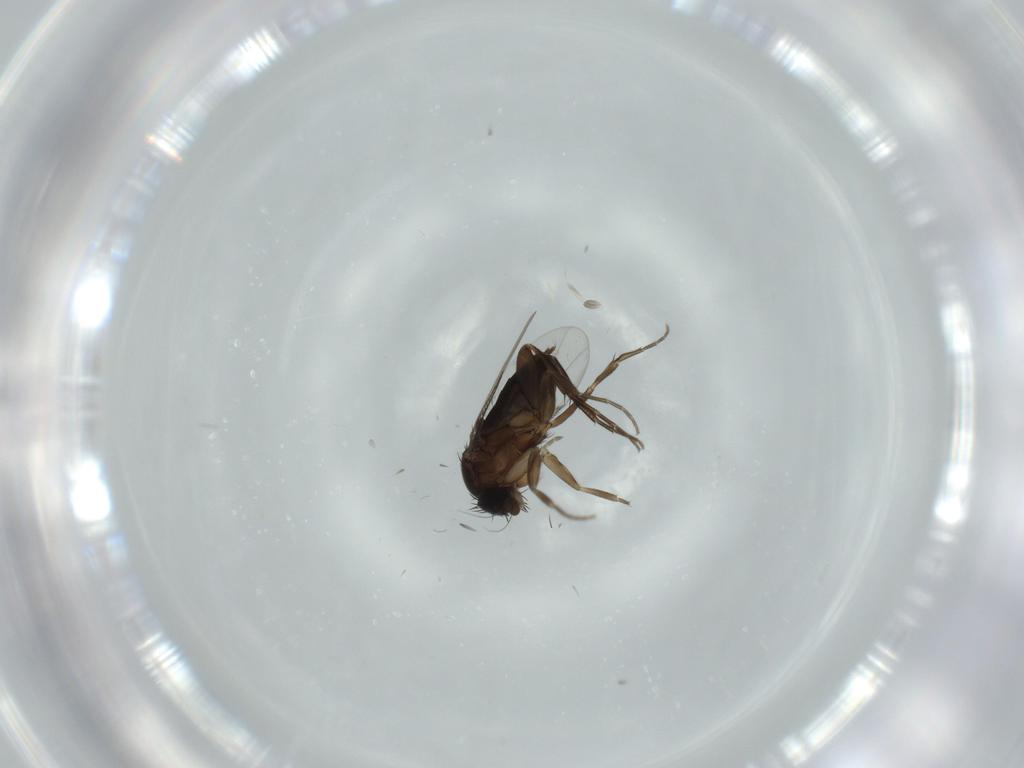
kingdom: Animalia
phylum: Arthropoda
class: Insecta
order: Diptera
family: Phoridae
